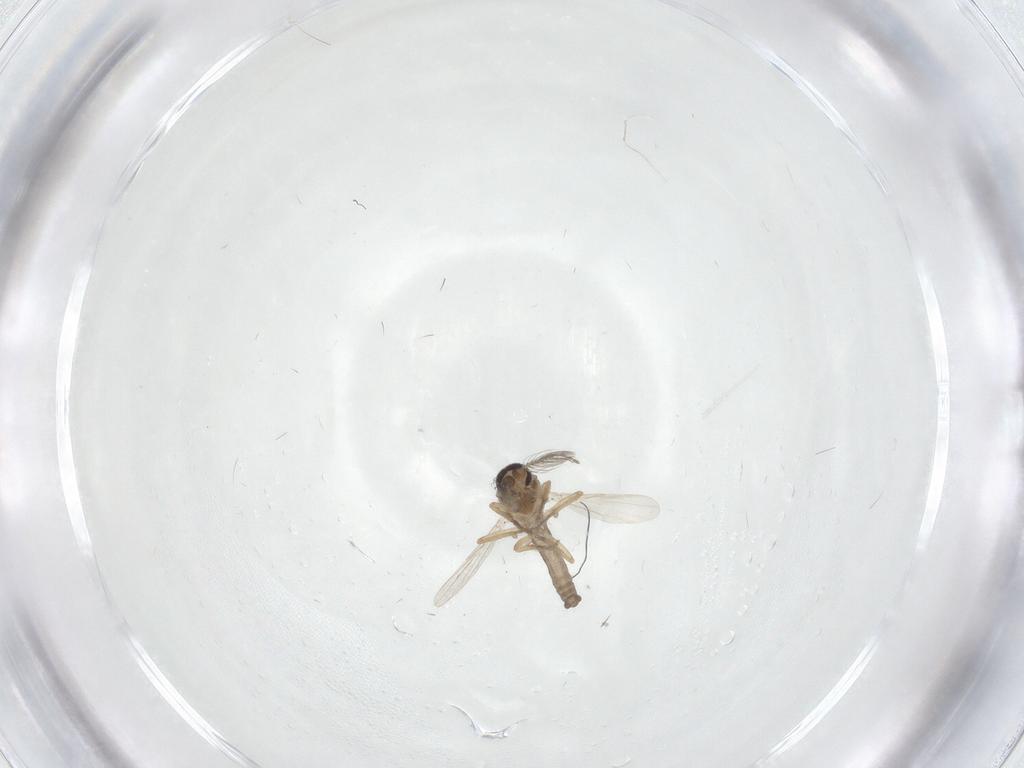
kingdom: Animalia
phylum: Arthropoda
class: Insecta
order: Diptera
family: Ceratopogonidae
